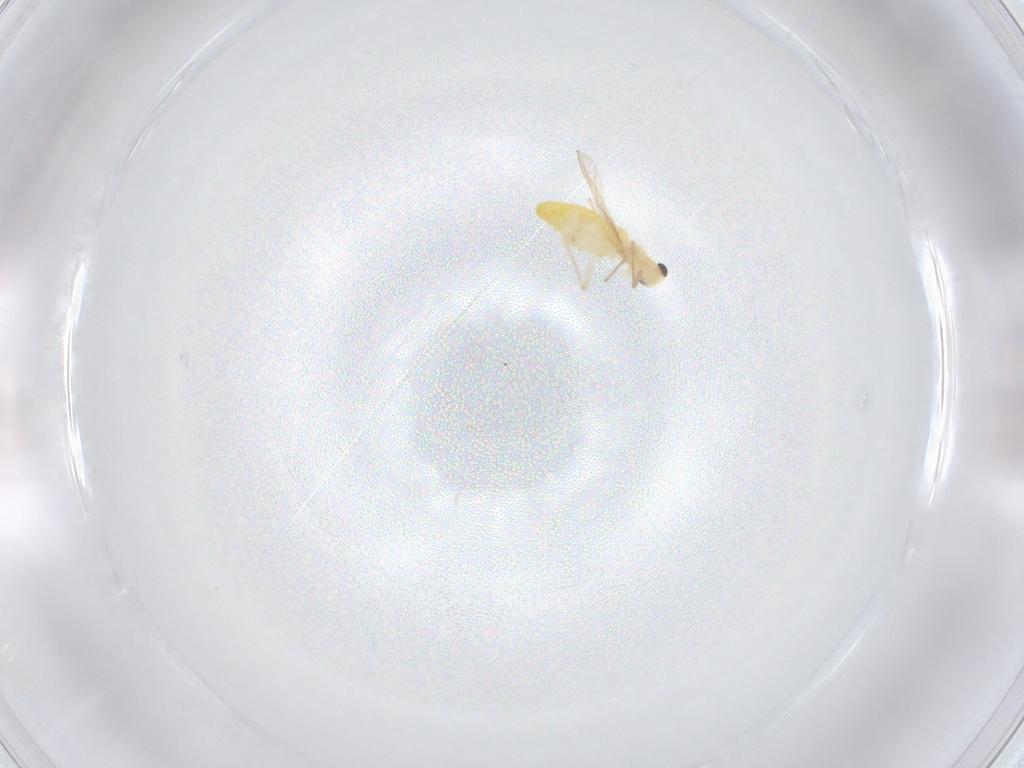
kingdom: Animalia
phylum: Arthropoda
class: Insecta
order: Diptera
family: Chironomidae
